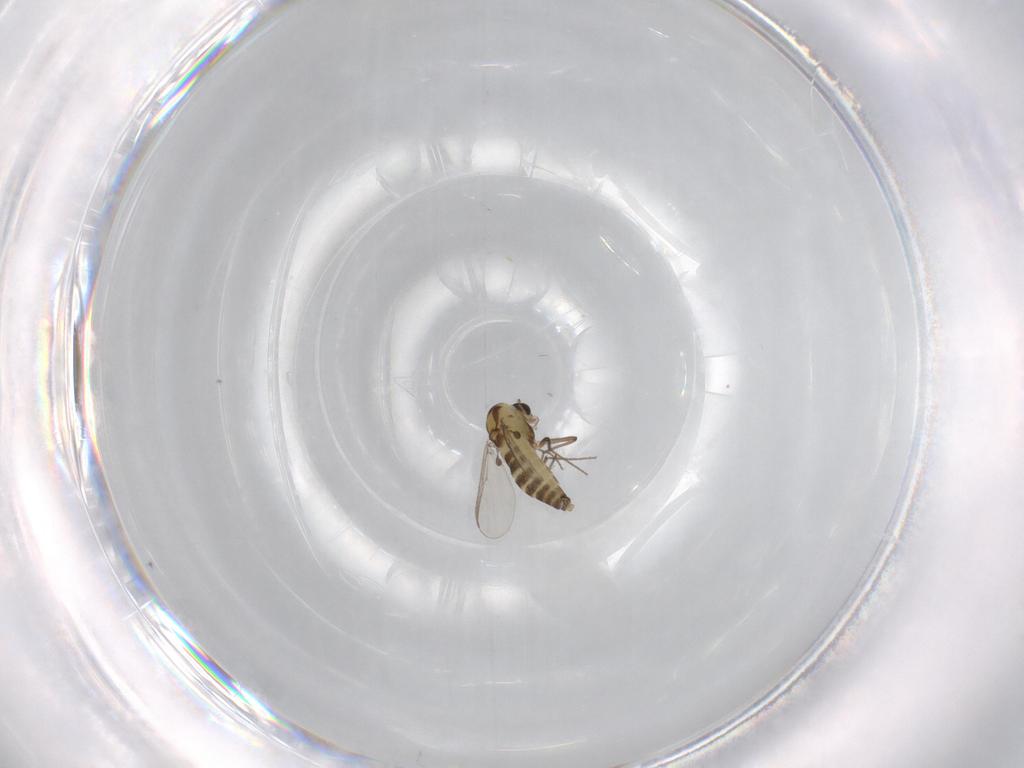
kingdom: Animalia
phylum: Arthropoda
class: Insecta
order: Diptera
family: Chironomidae
